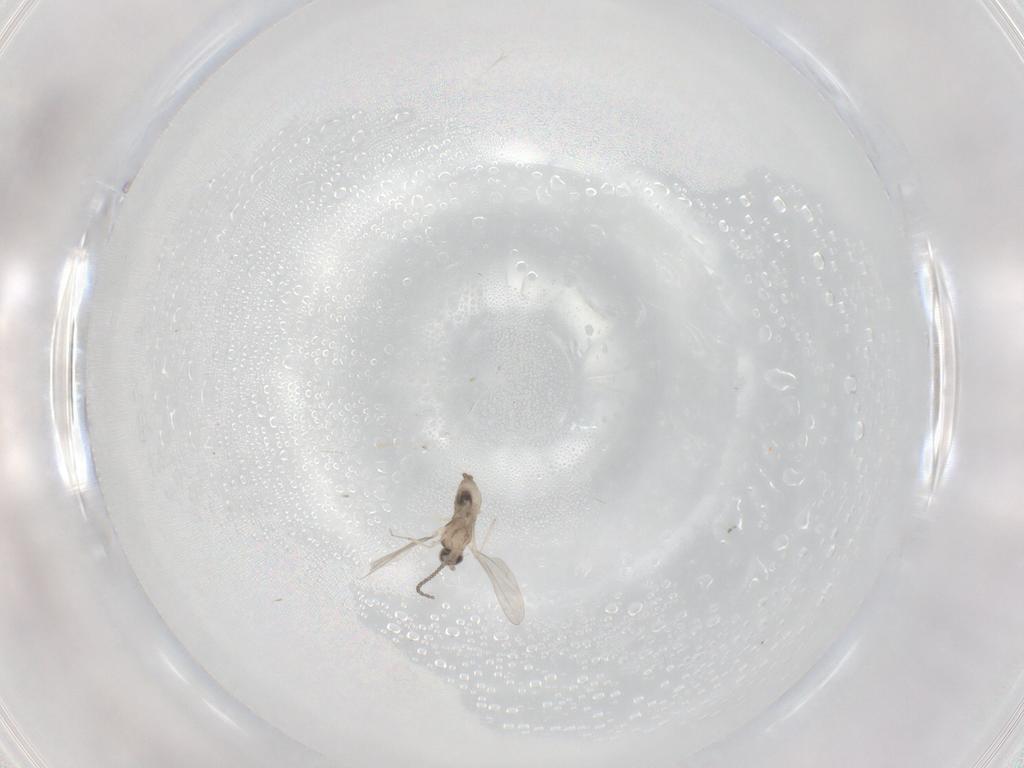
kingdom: Animalia
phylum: Arthropoda
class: Insecta
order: Diptera
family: Cecidomyiidae
